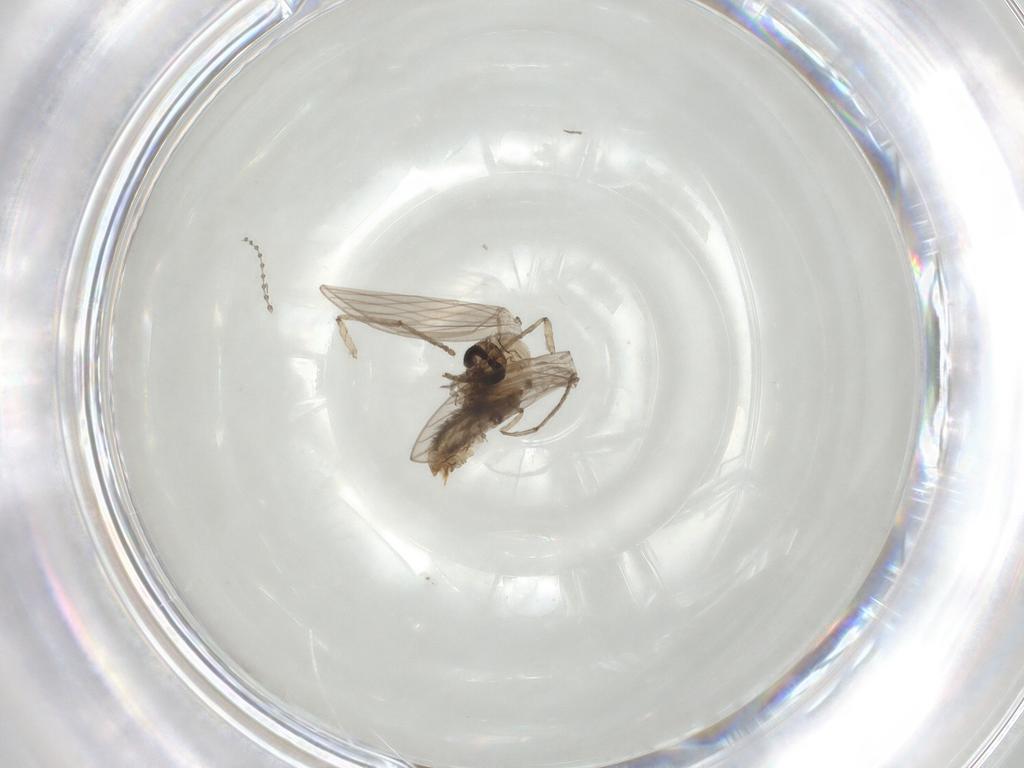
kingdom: Animalia
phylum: Arthropoda
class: Insecta
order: Diptera
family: Psychodidae
